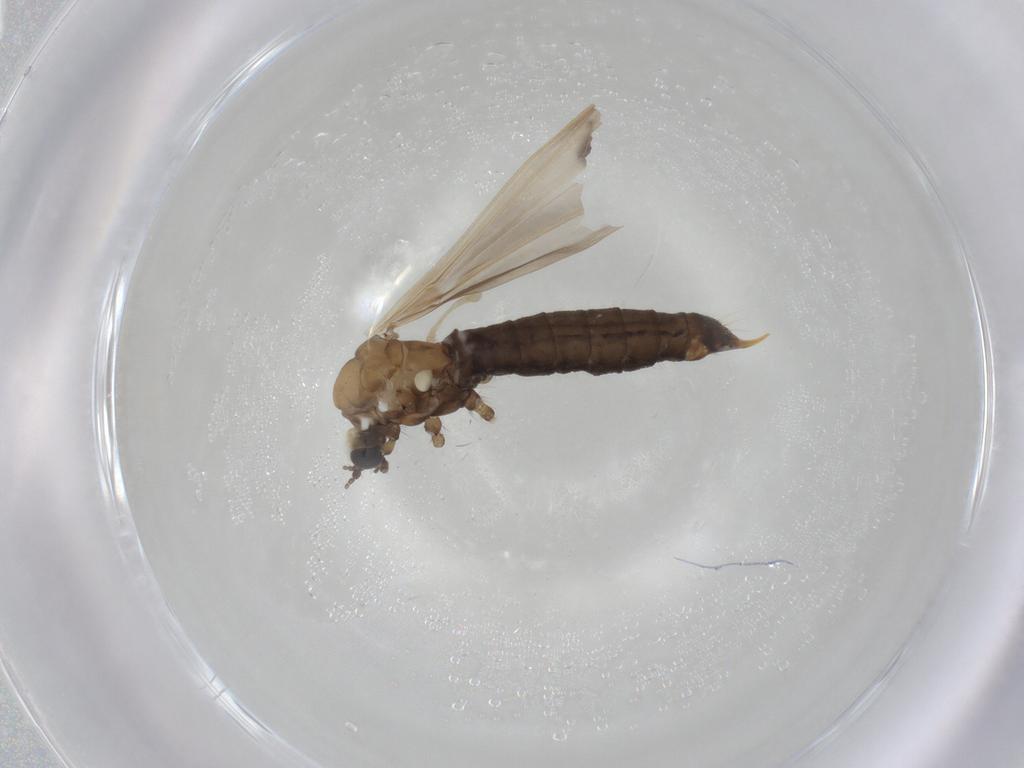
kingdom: Animalia
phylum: Arthropoda
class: Insecta
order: Diptera
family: Limoniidae
